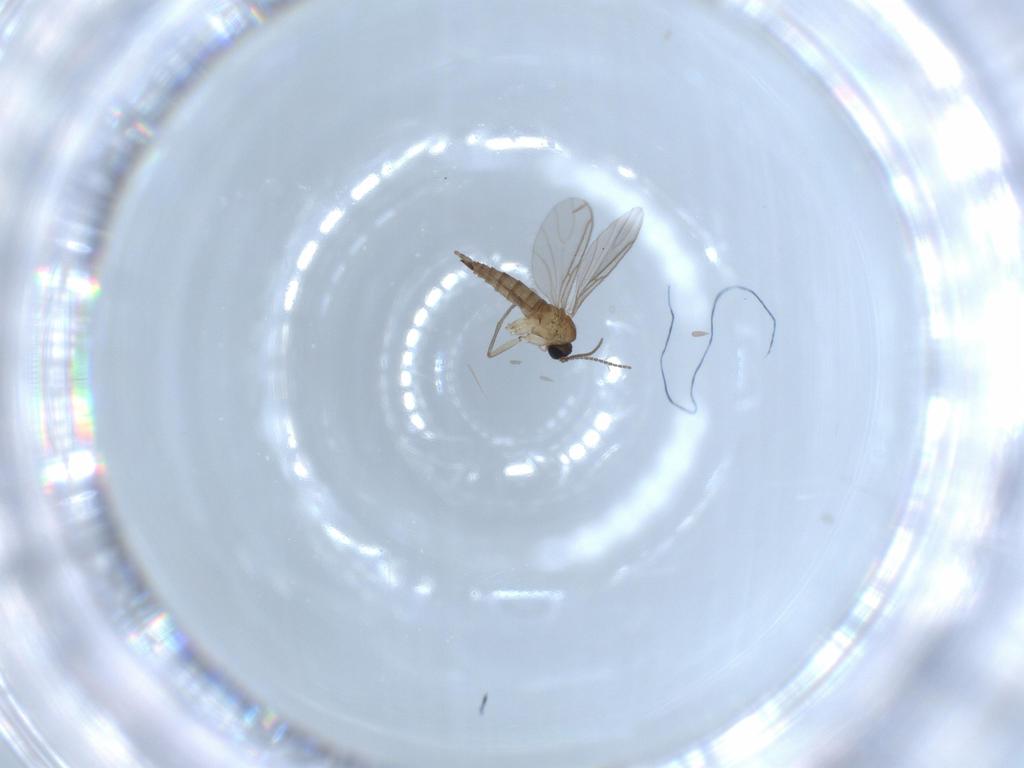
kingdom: Animalia
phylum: Arthropoda
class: Insecta
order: Diptera
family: Sciaridae
